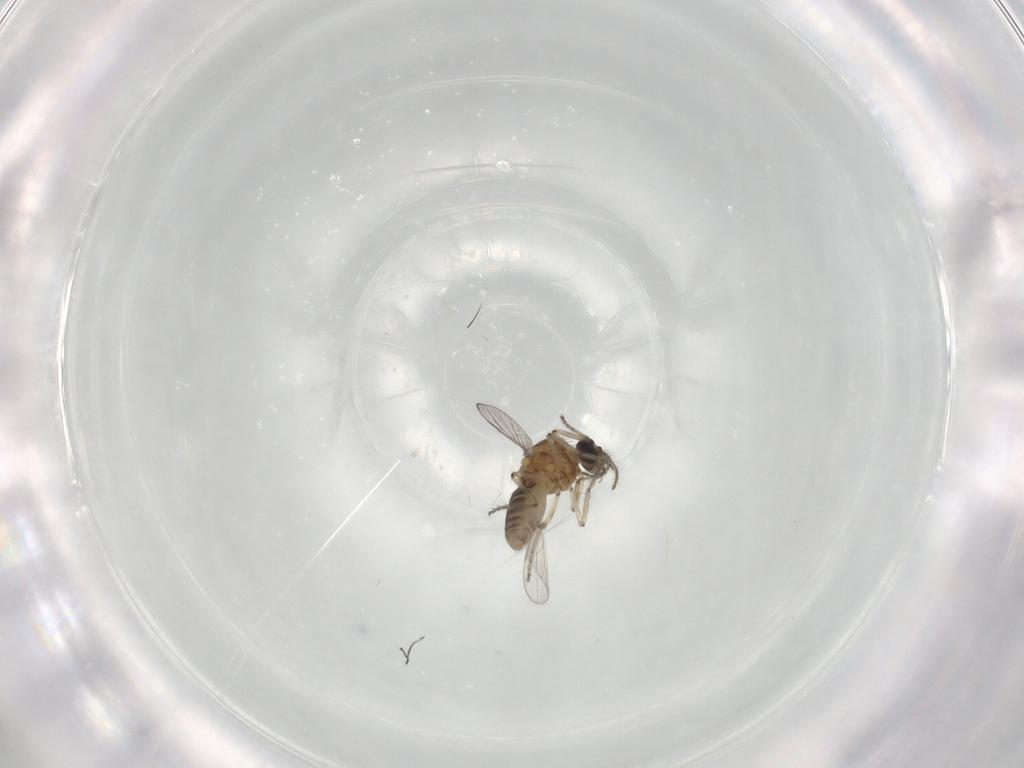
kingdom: Animalia
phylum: Arthropoda
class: Insecta
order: Diptera
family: Ceratopogonidae
